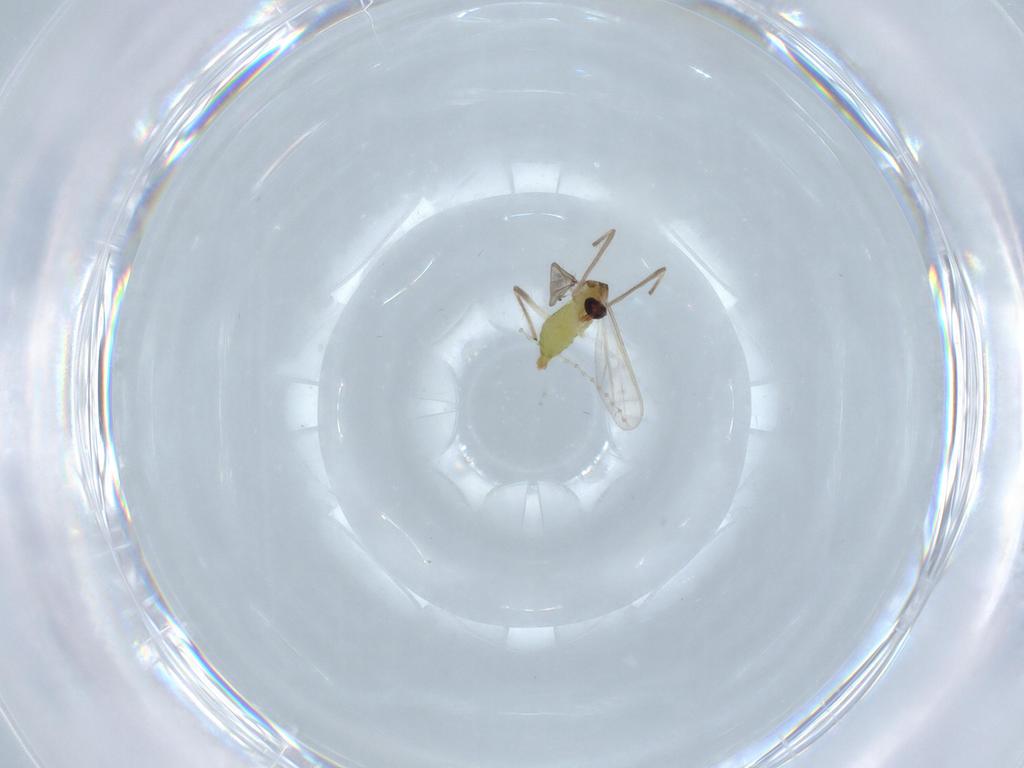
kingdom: Animalia
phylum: Arthropoda
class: Insecta
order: Diptera
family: Chironomidae
